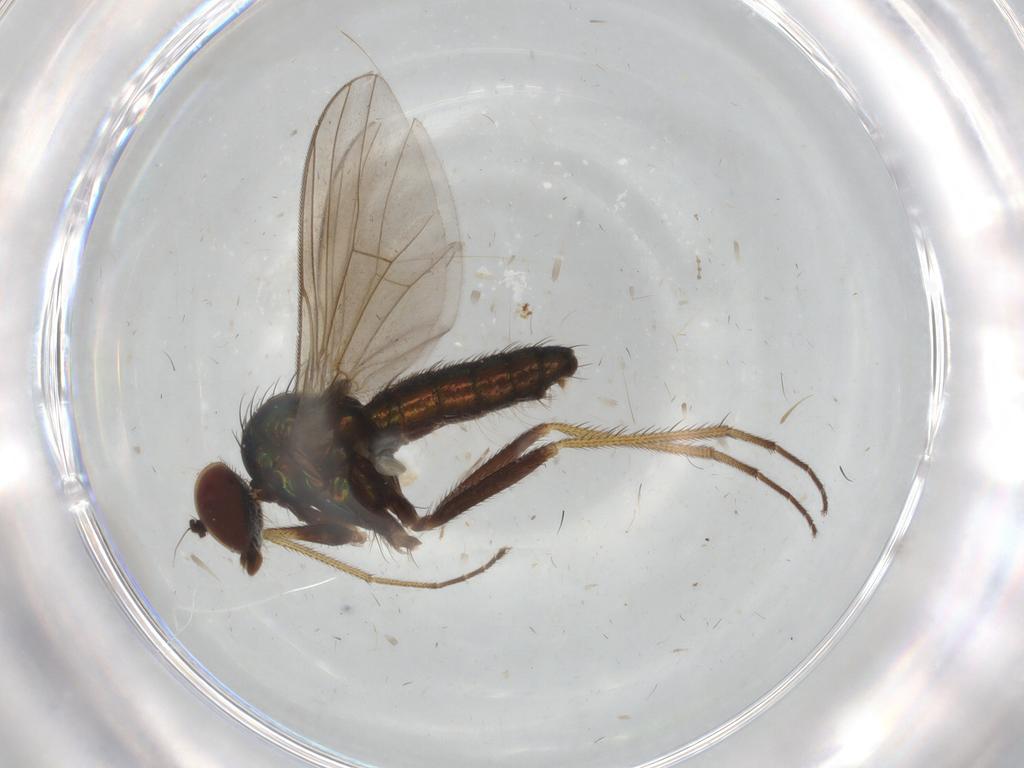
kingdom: Animalia
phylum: Arthropoda
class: Insecta
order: Diptera
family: Dolichopodidae
